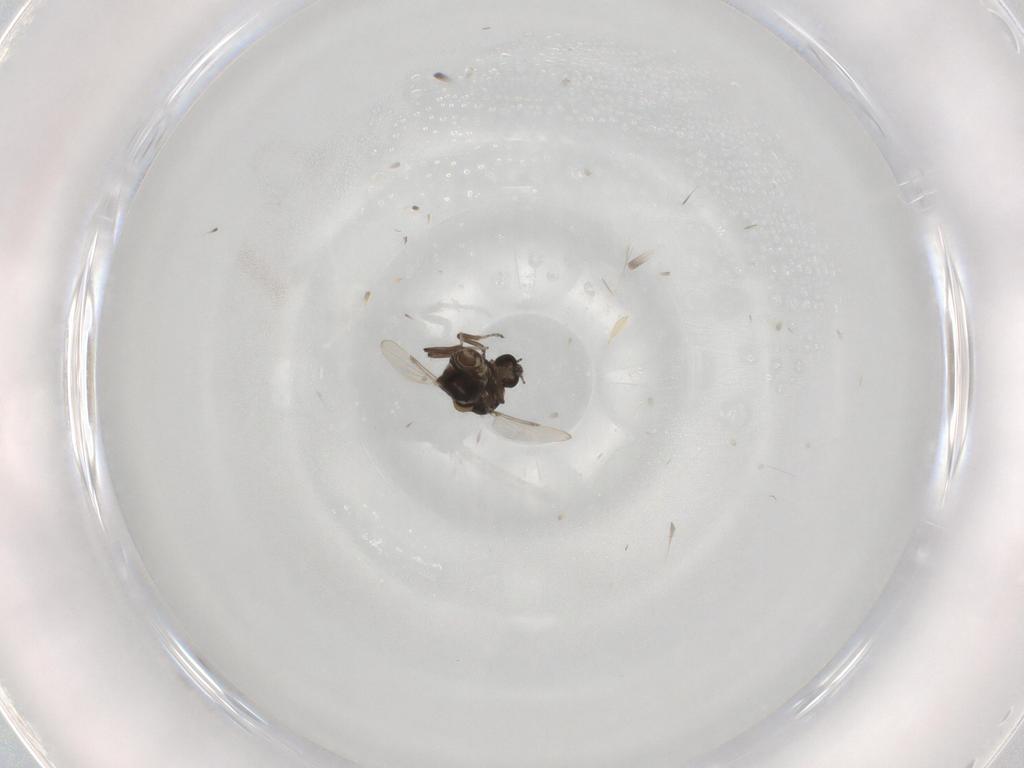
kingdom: Animalia
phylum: Arthropoda
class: Insecta
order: Diptera
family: Ceratopogonidae
